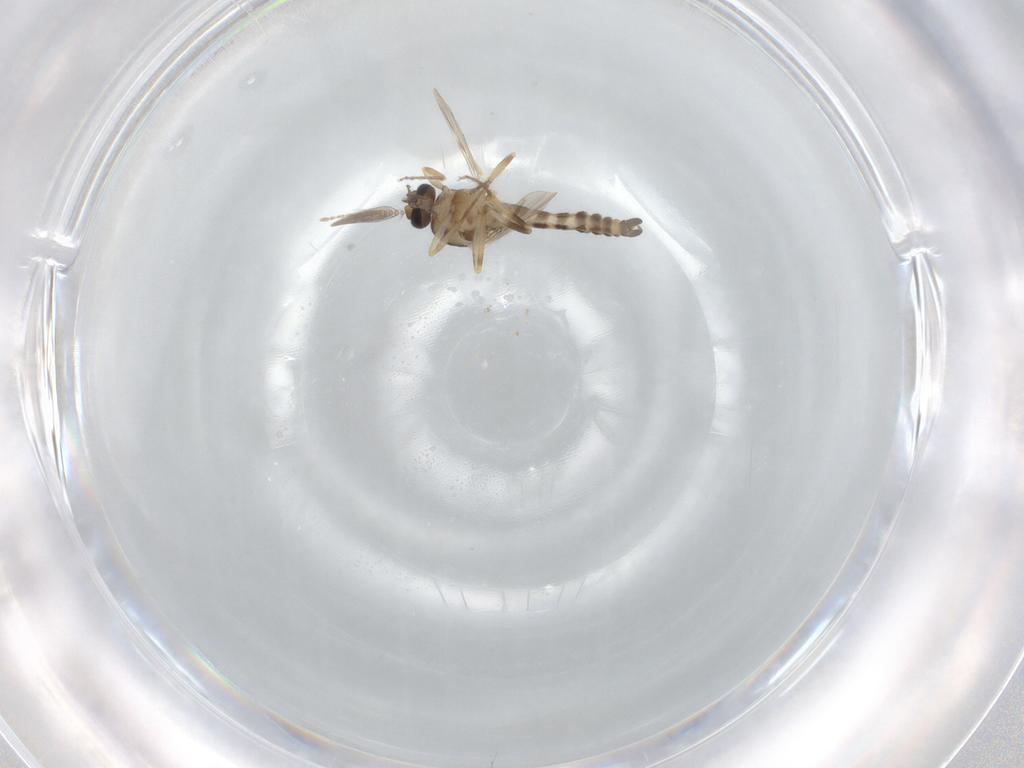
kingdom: Animalia
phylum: Arthropoda
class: Insecta
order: Diptera
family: Ceratopogonidae
